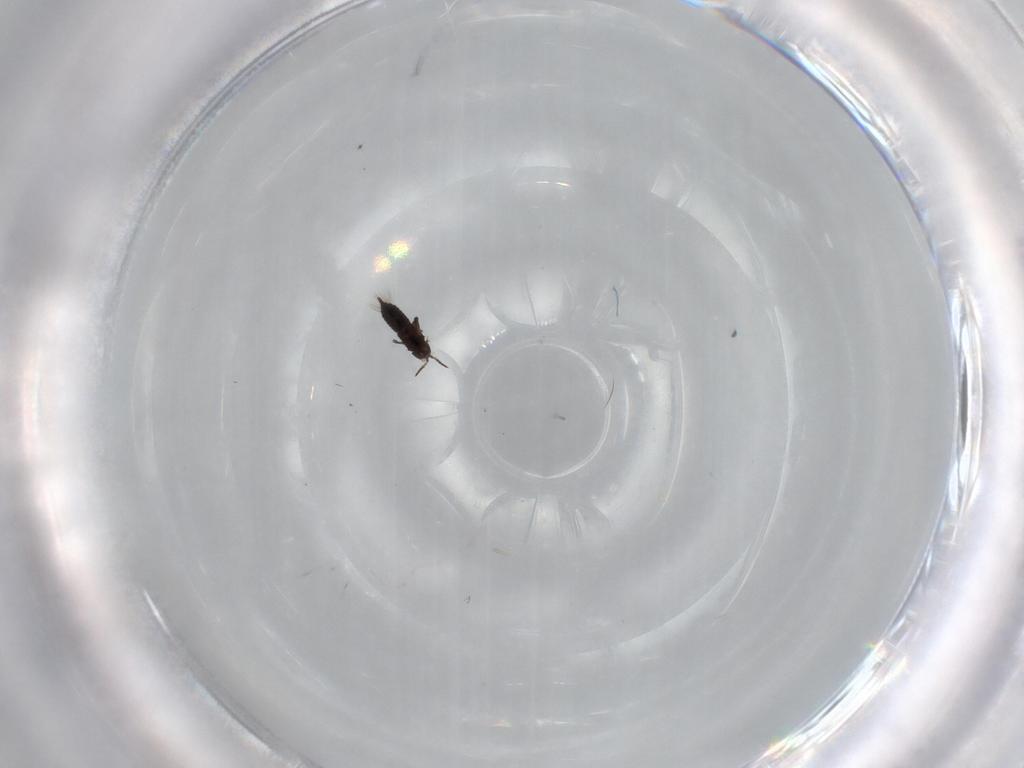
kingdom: Animalia
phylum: Arthropoda
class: Insecta
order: Thysanoptera
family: Phlaeothripidae
